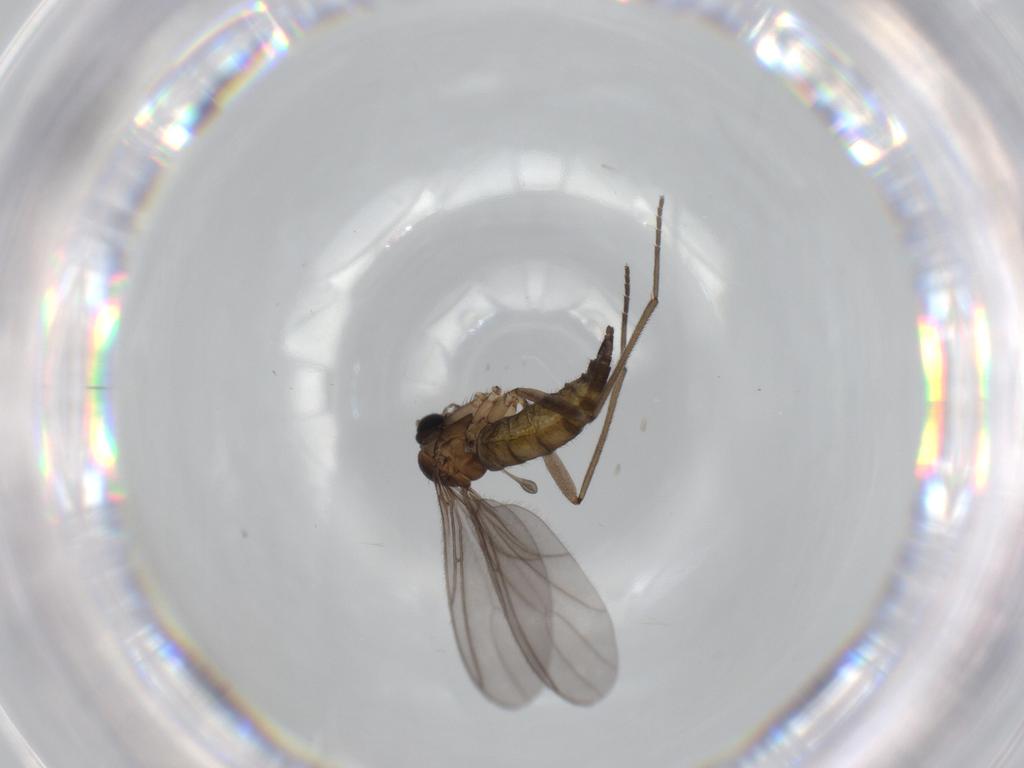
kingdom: Animalia
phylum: Arthropoda
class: Insecta
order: Diptera
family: Sciaridae
